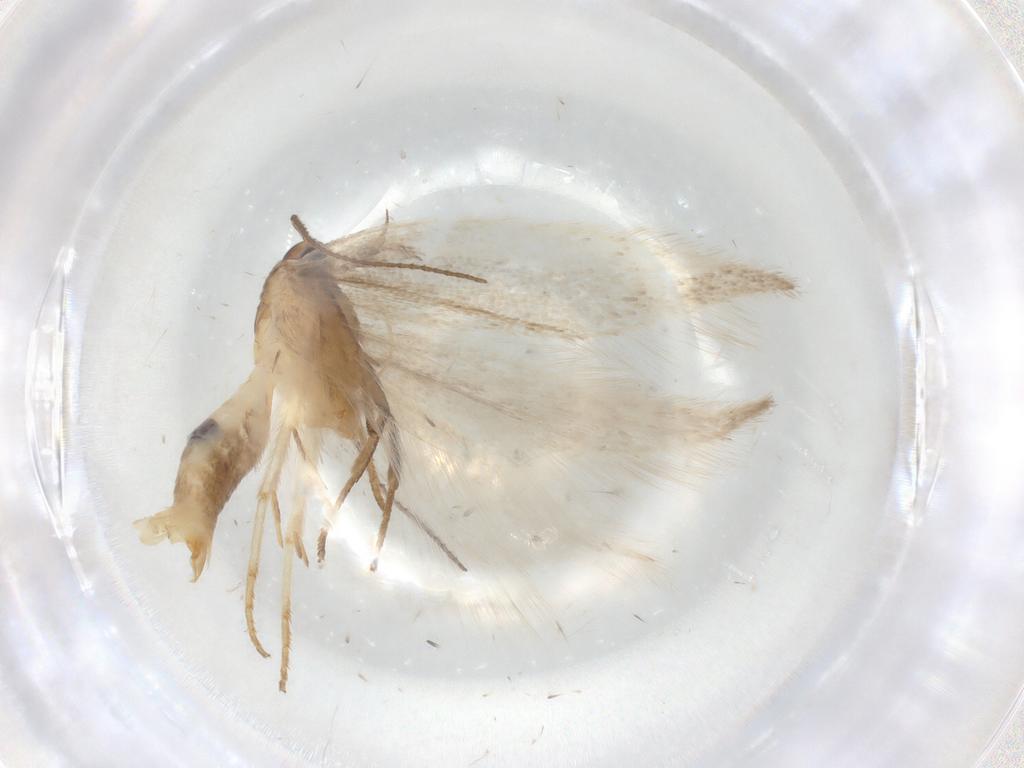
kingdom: Animalia
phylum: Arthropoda
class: Insecta
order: Lepidoptera
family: Gelechiidae
